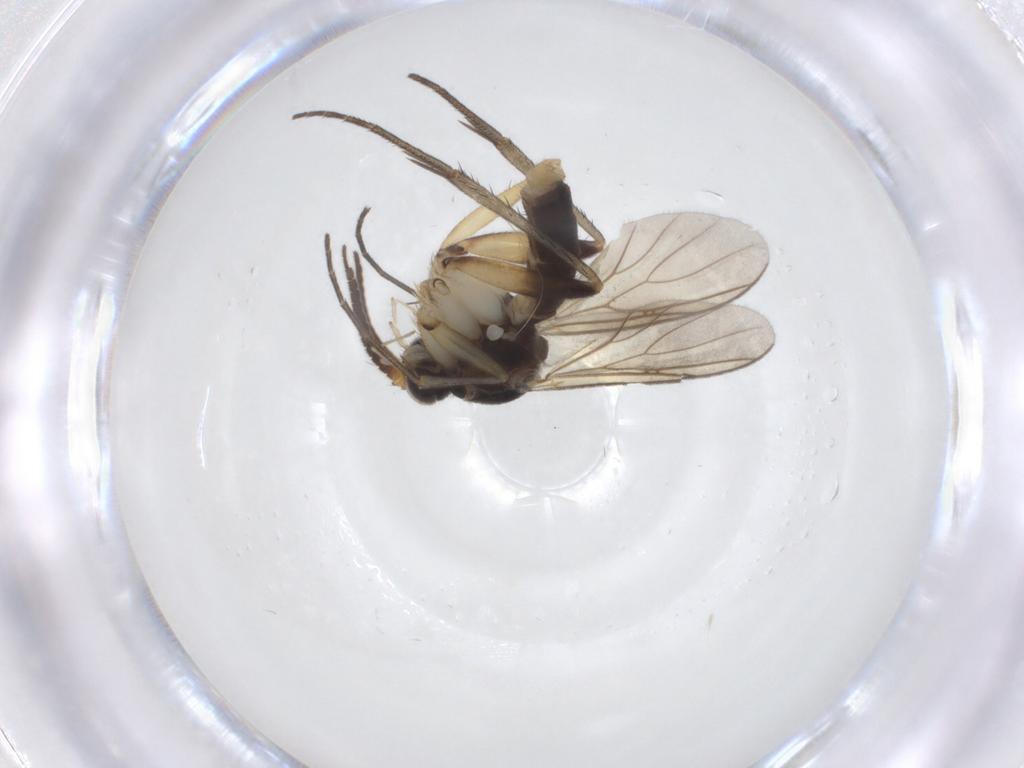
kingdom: Animalia
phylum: Arthropoda
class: Insecta
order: Diptera
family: Mycetophilidae
